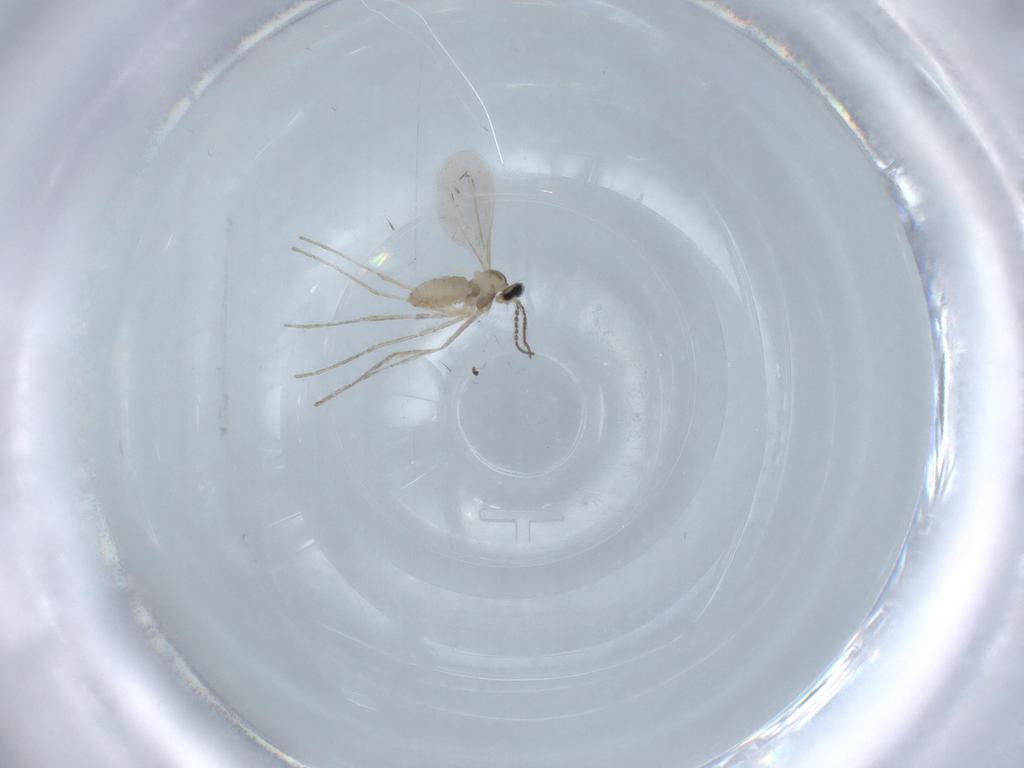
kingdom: Animalia
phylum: Arthropoda
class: Insecta
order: Diptera
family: Cecidomyiidae
